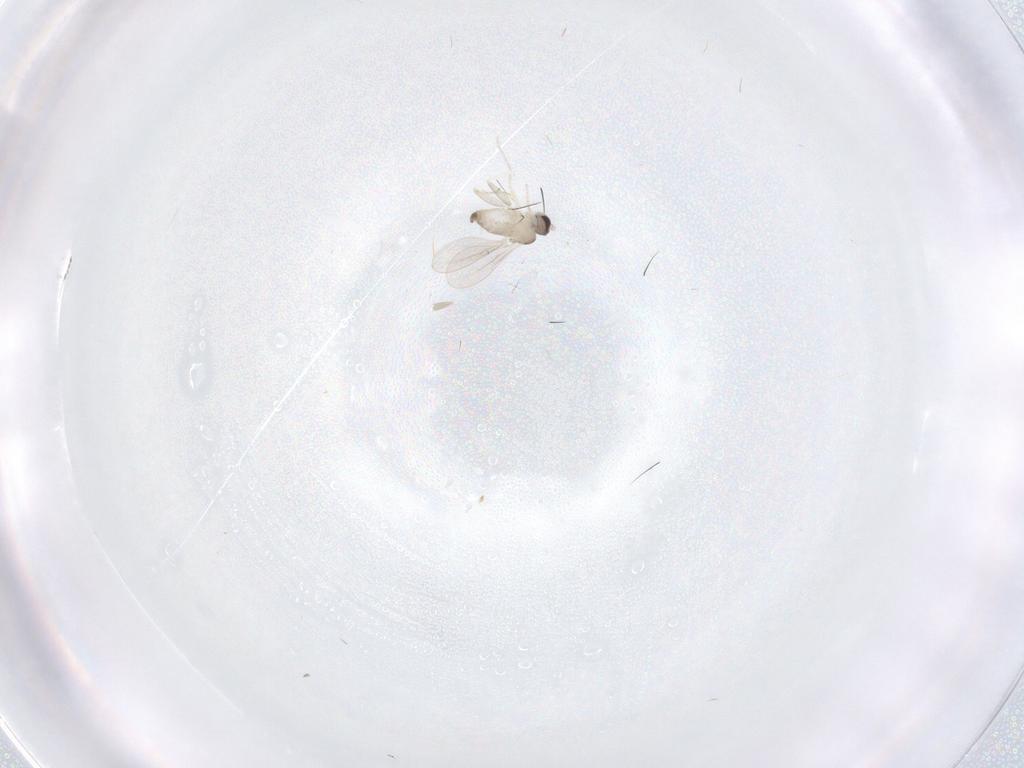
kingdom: Animalia
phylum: Arthropoda
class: Insecta
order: Diptera
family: Cecidomyiidae
